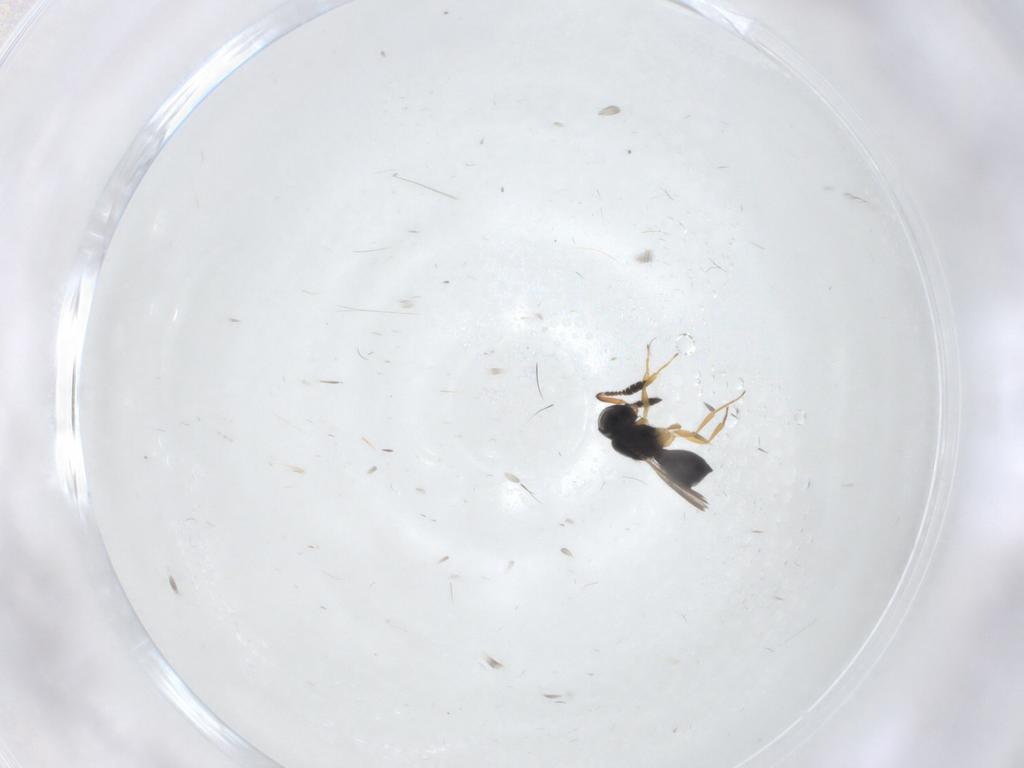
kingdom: Animalia
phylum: Arthropoda
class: Insecta
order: Hymenoptera
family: Scelionidae
